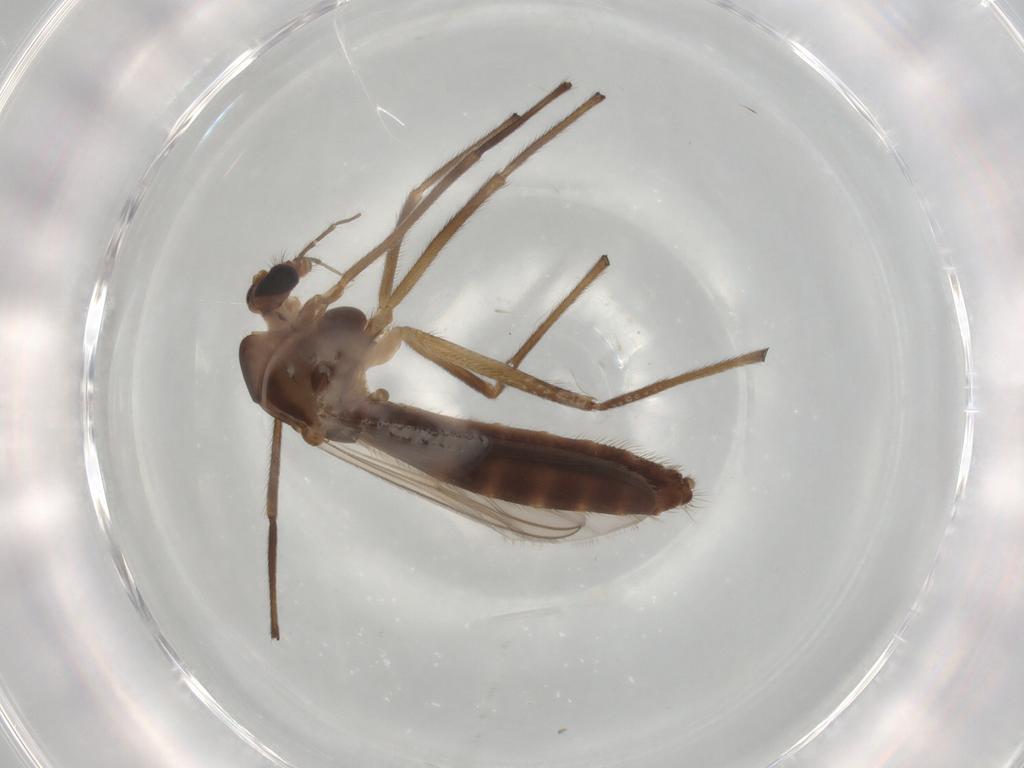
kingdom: Animalia
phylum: Arthropoda
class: Insecta
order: Diptera
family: Chironomidae
